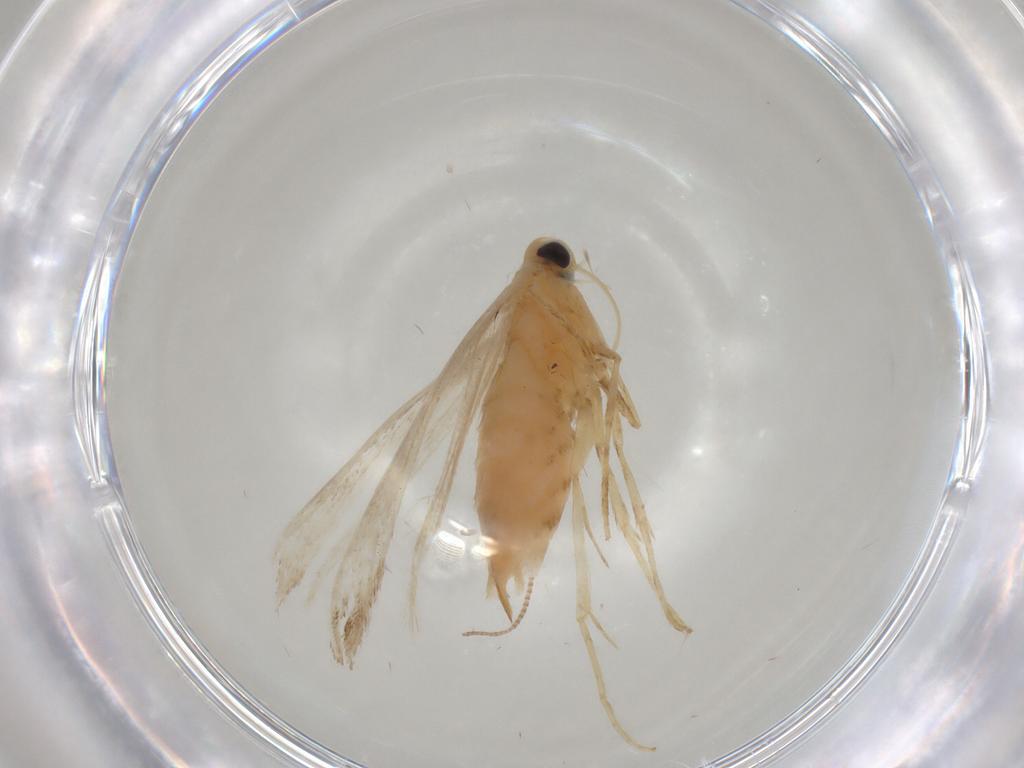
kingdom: Animalia
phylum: Arthropoda
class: Insecta
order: Lepidoptera
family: Gracillariidae
